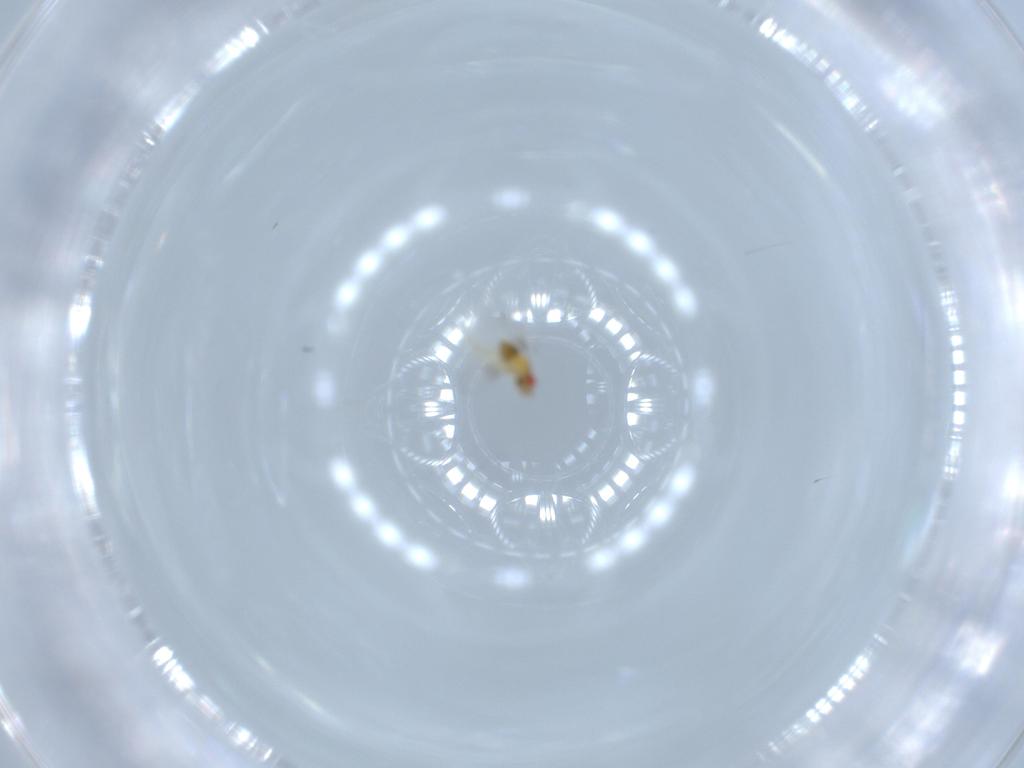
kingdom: Animalia
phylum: Arthropoda
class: Insecta
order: Hymenoptera
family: Trichogrammatidae
